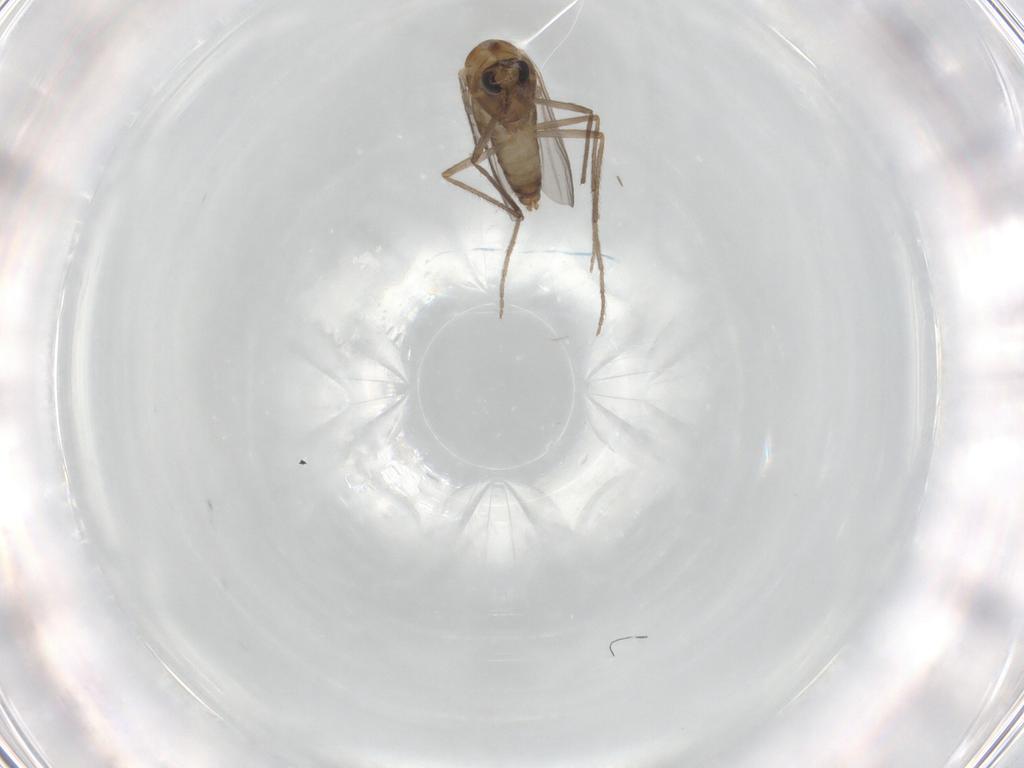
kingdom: Animalia
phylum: Arthropoda
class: Insecta
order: Diptera
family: Chironomidae
